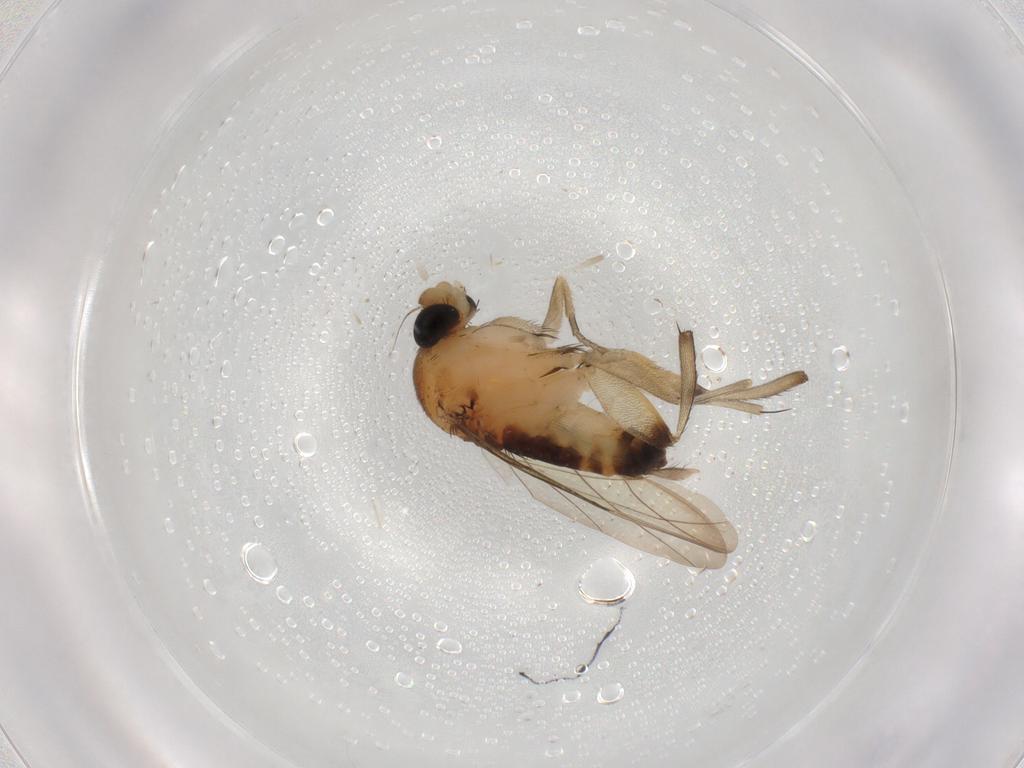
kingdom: Animalia
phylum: Arthropoda
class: Insecta
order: Diptera
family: Phoridae
